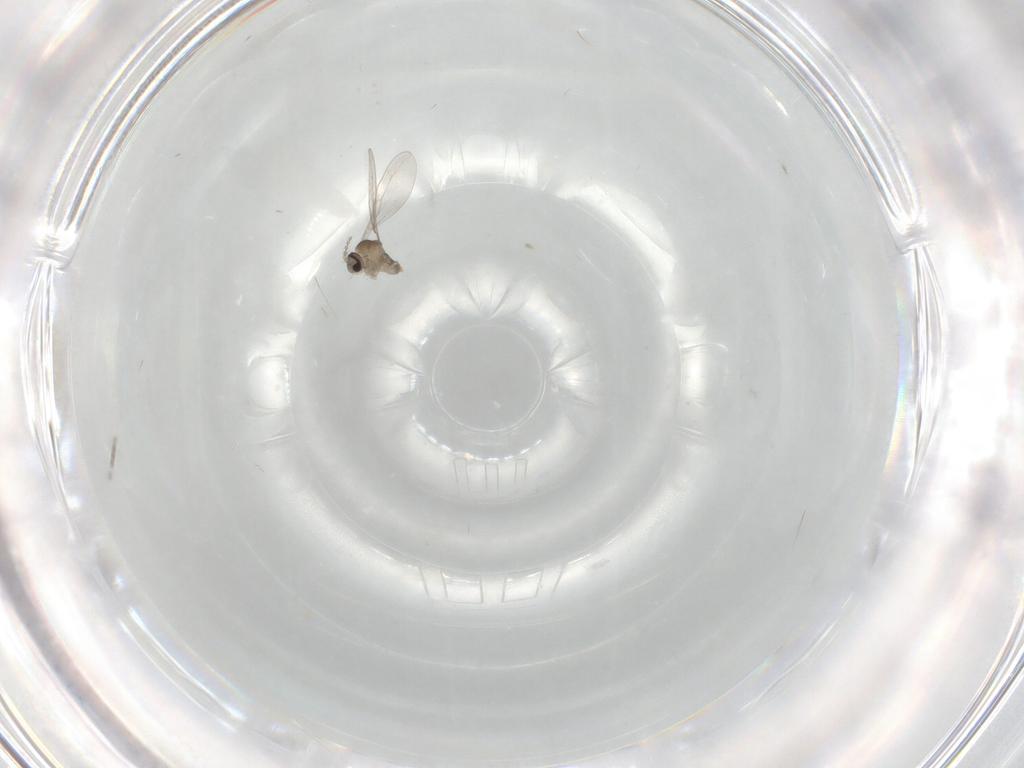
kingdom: Animalia
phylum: Arthropoda
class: Insecta
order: Diptera
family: Cecidomyiidae
